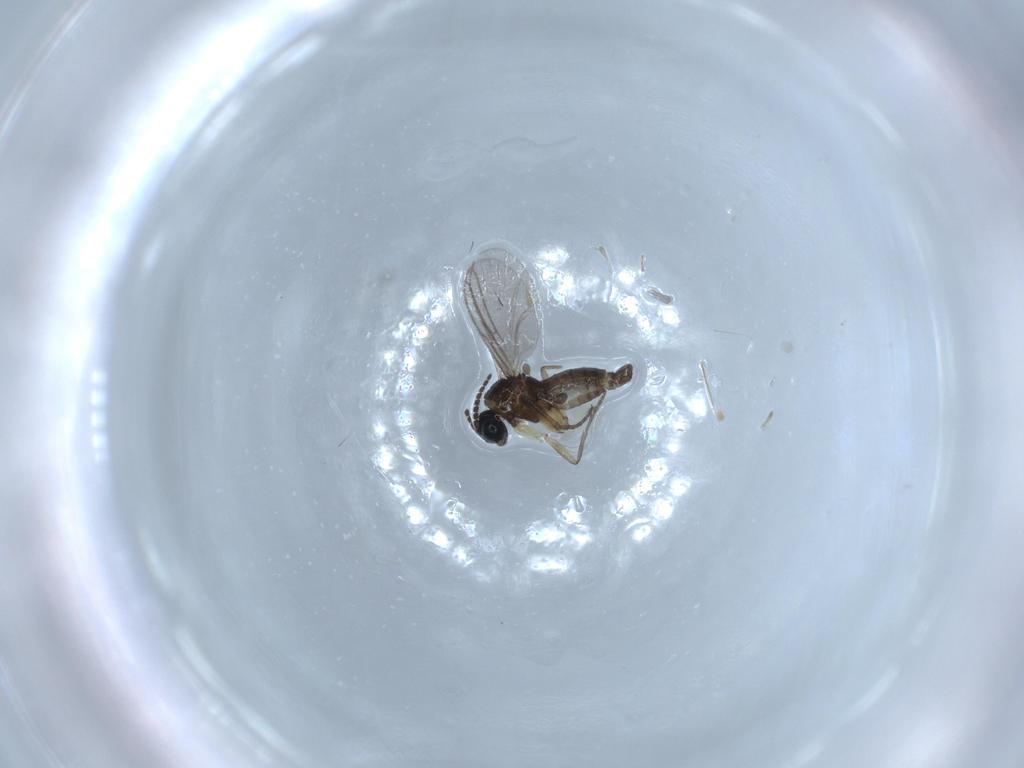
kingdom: Animalia
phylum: Arthropoda
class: Insecta
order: Diptera
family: Sciaridae
